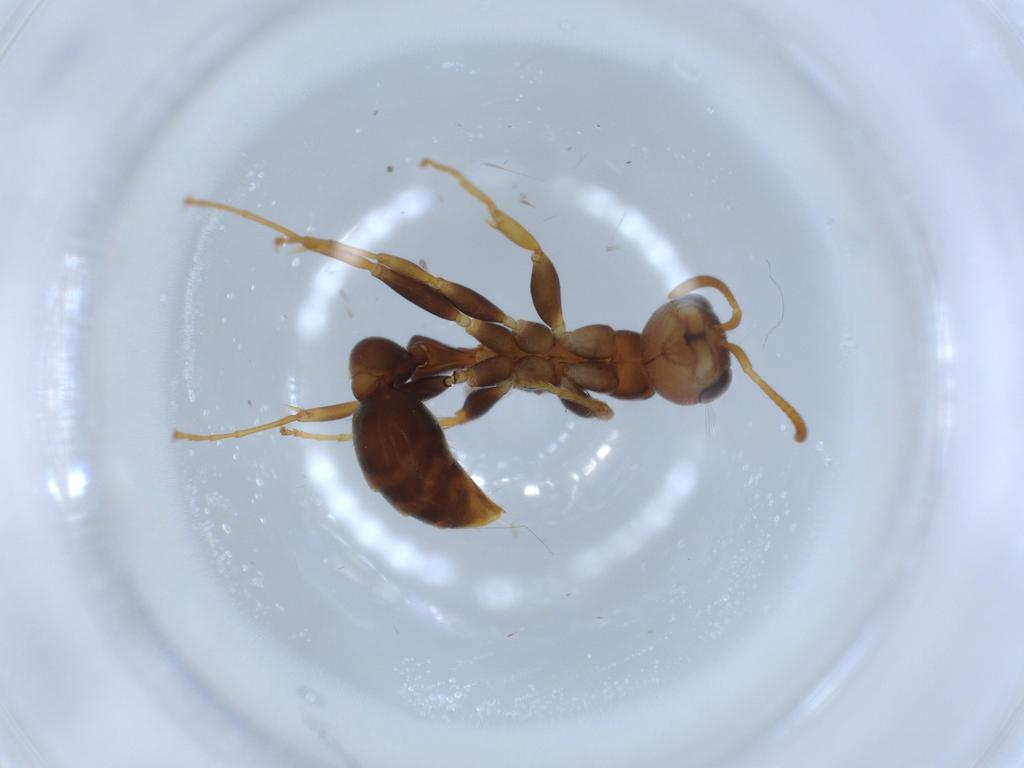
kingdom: Animalia
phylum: Arthropoda
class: Insecta
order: Hymenoptera
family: Formicidae
